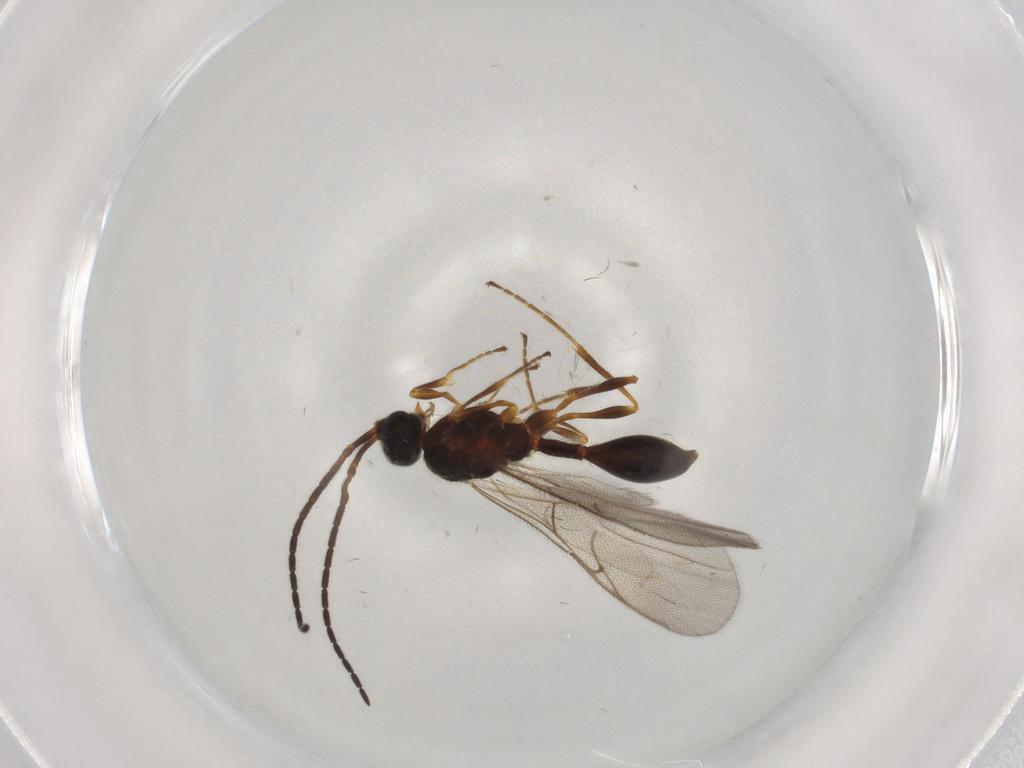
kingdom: Animalia
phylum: Arthropoda
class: Insecta
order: Hymenoptera
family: Diapriidae
